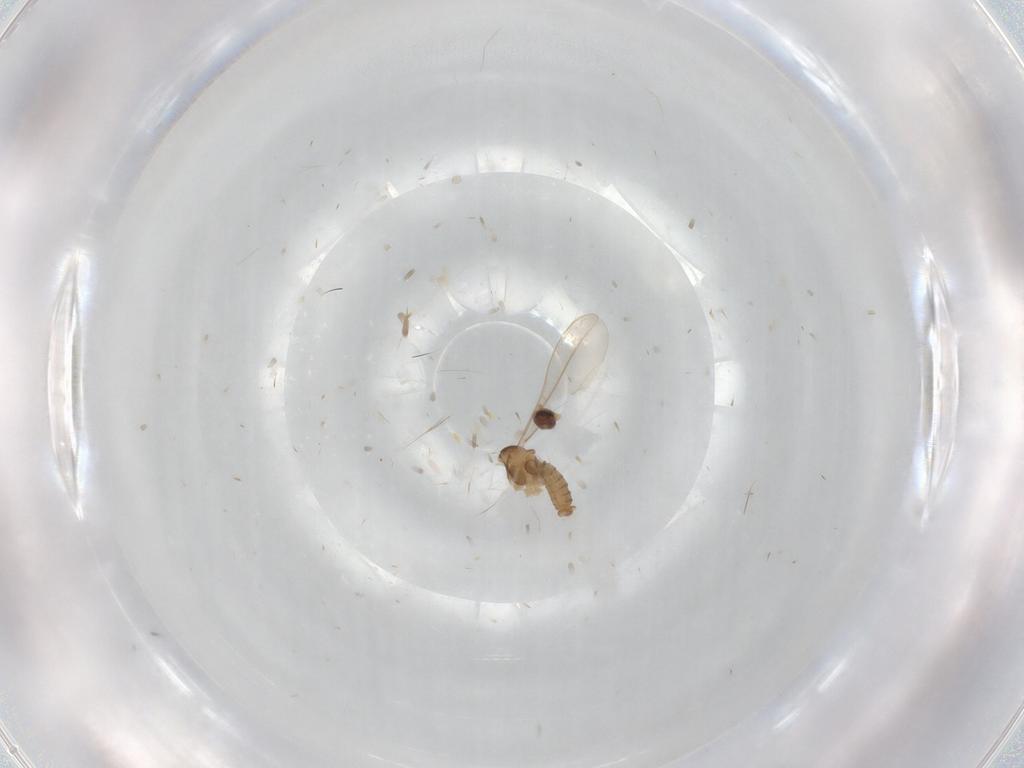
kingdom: Animalia
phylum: Arthropoda
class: Insecta
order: Diptera
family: Cecidomyiidae
